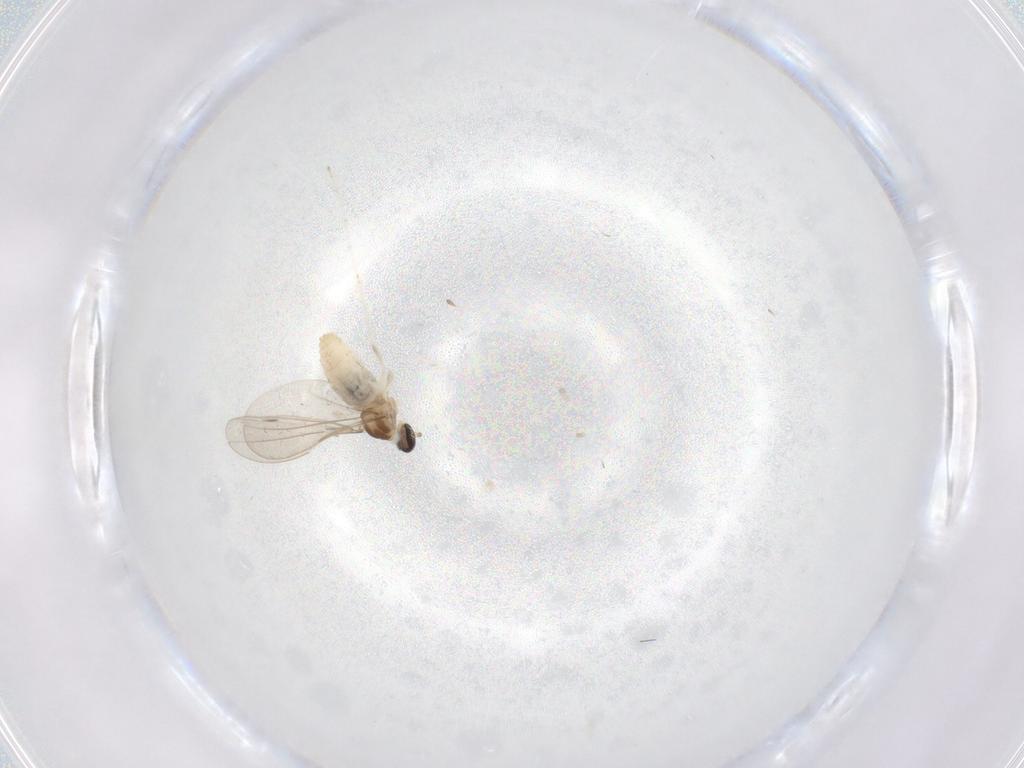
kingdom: Animalia
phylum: Arthropoda
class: Insecta
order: Diptera
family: Cecidomyiidae
